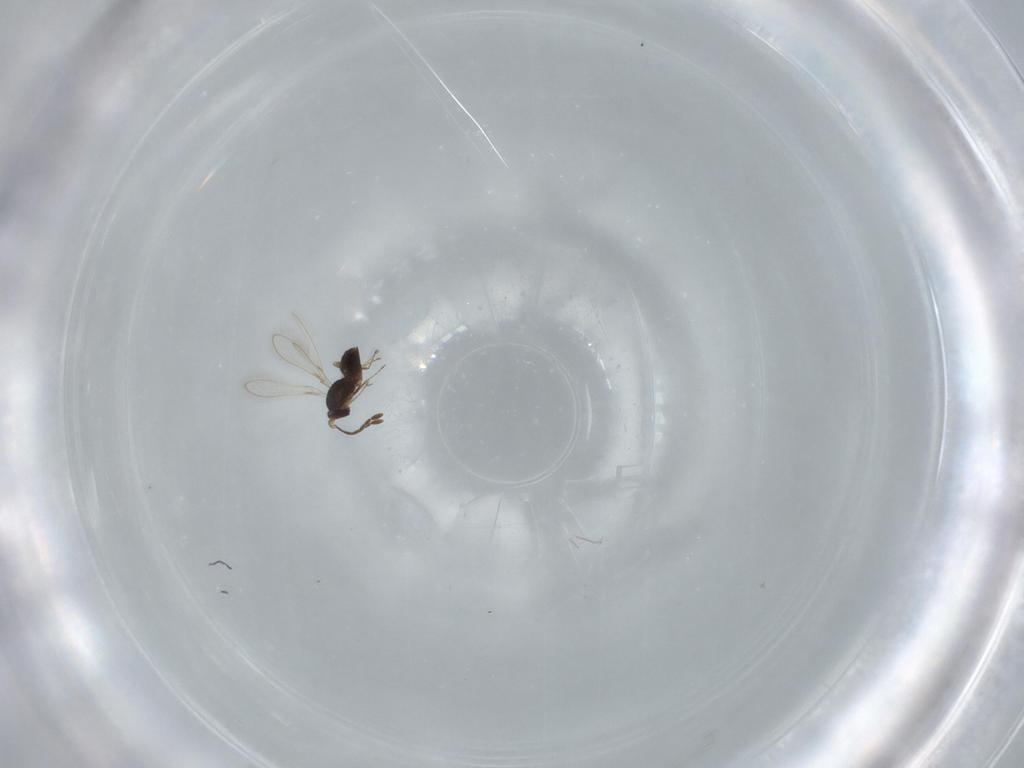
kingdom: Animalia
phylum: Arthropoda
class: Insecta
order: Hymenoptera
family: Mymaridae
